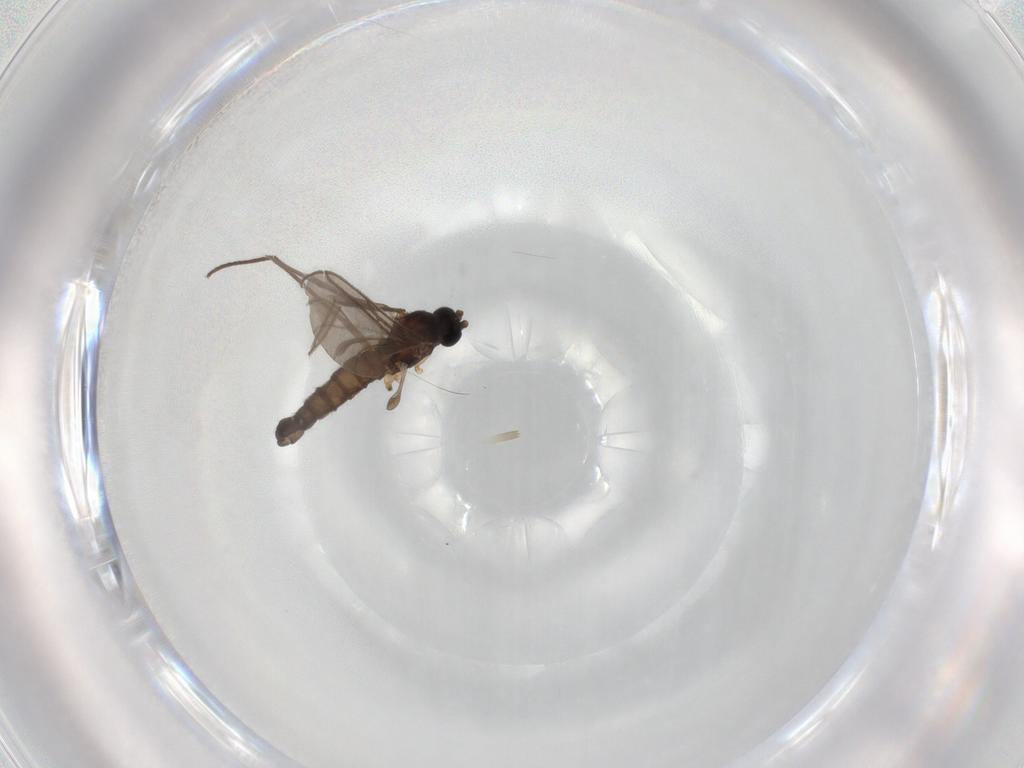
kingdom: Animalia
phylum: Arthropoda
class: Insecta
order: Diptera
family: Sciaridae
